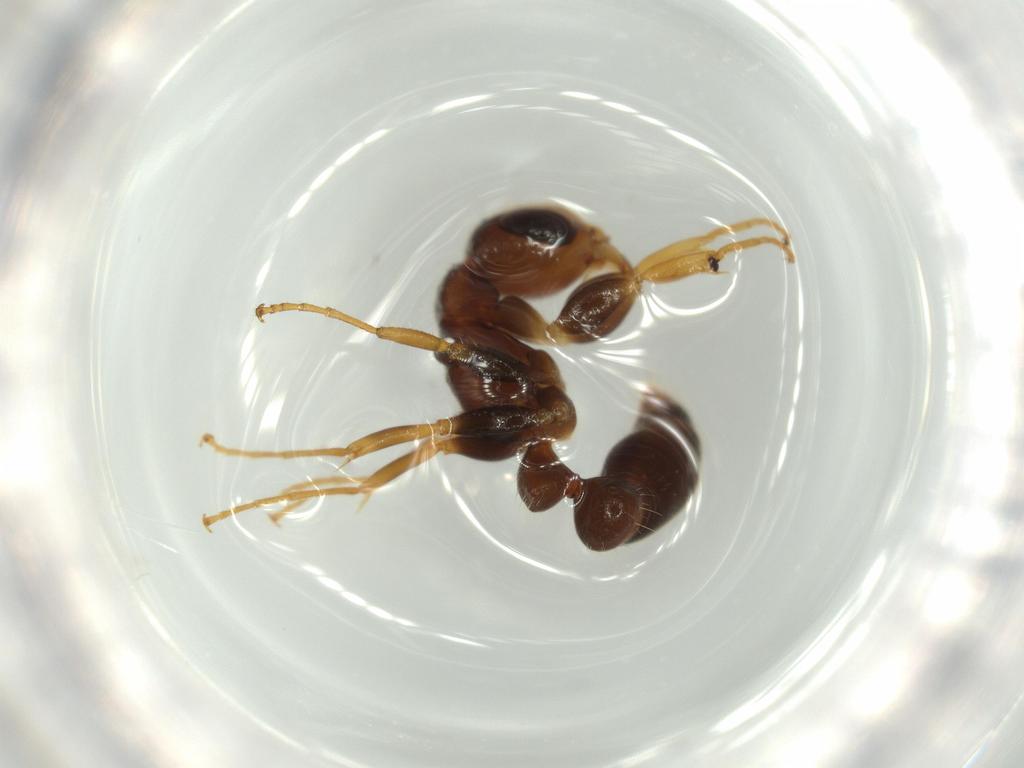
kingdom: Animalia
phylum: Arthropoda
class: Insecta
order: Hymenoptera
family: Formicidae
